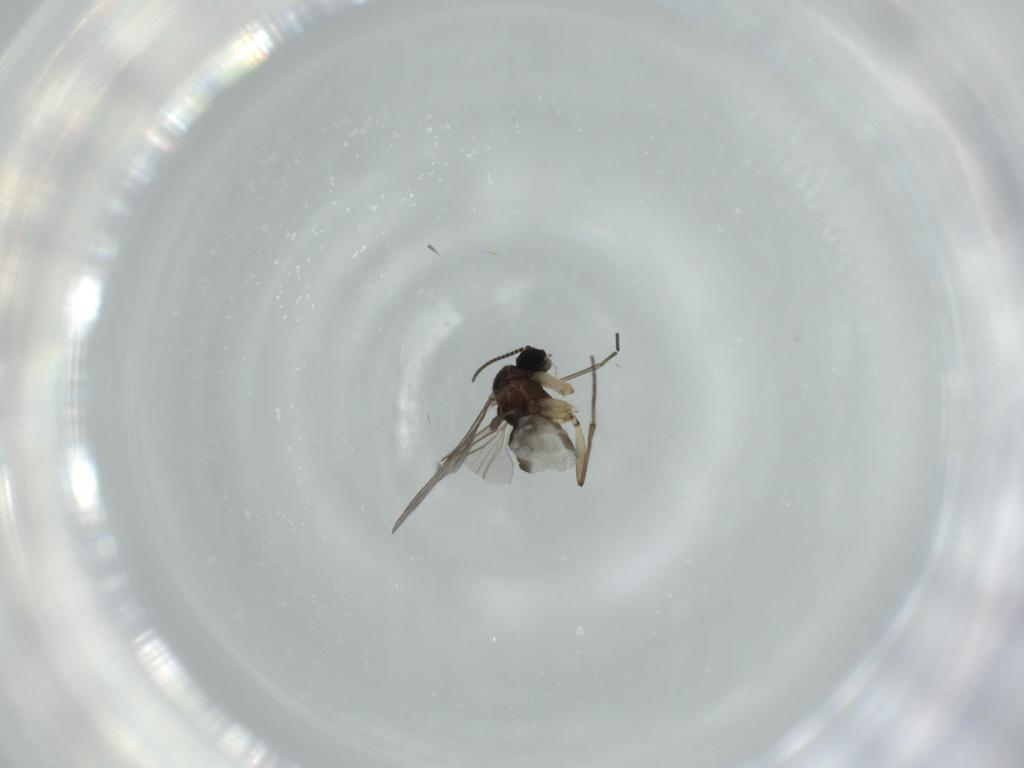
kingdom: Animalia
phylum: Arthropoda
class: Insecta
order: Diptera
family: Sciaridae
